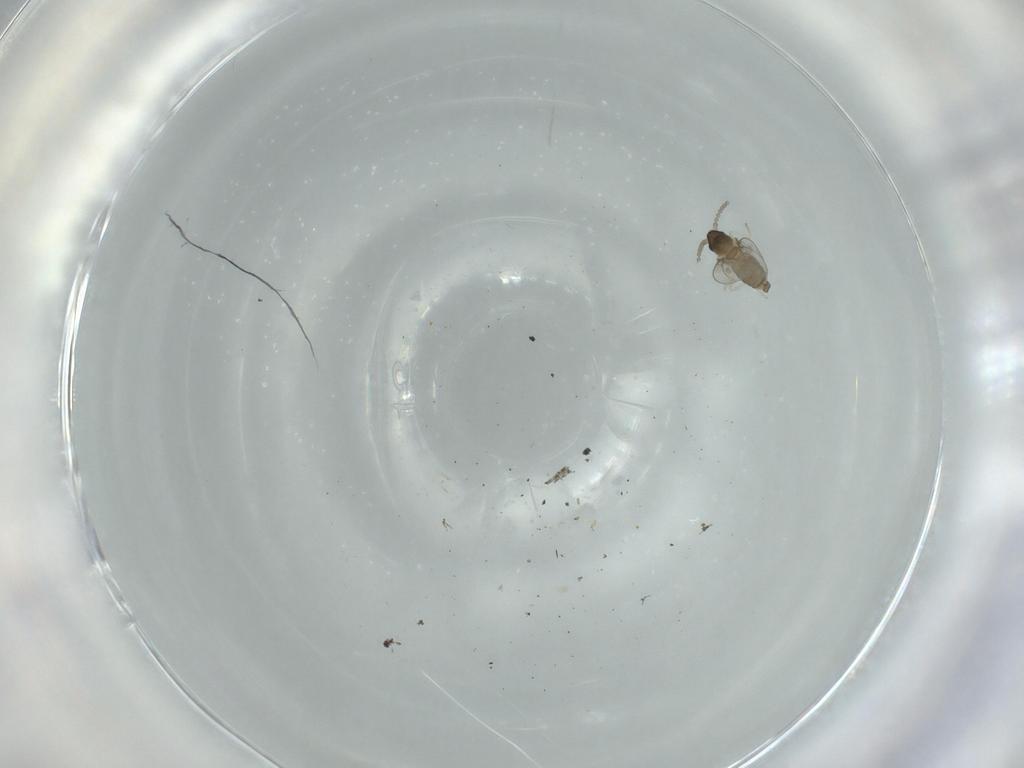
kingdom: Animalia
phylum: Arthropoda
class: Insecta
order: Diptera
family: Cecidomyiidae
